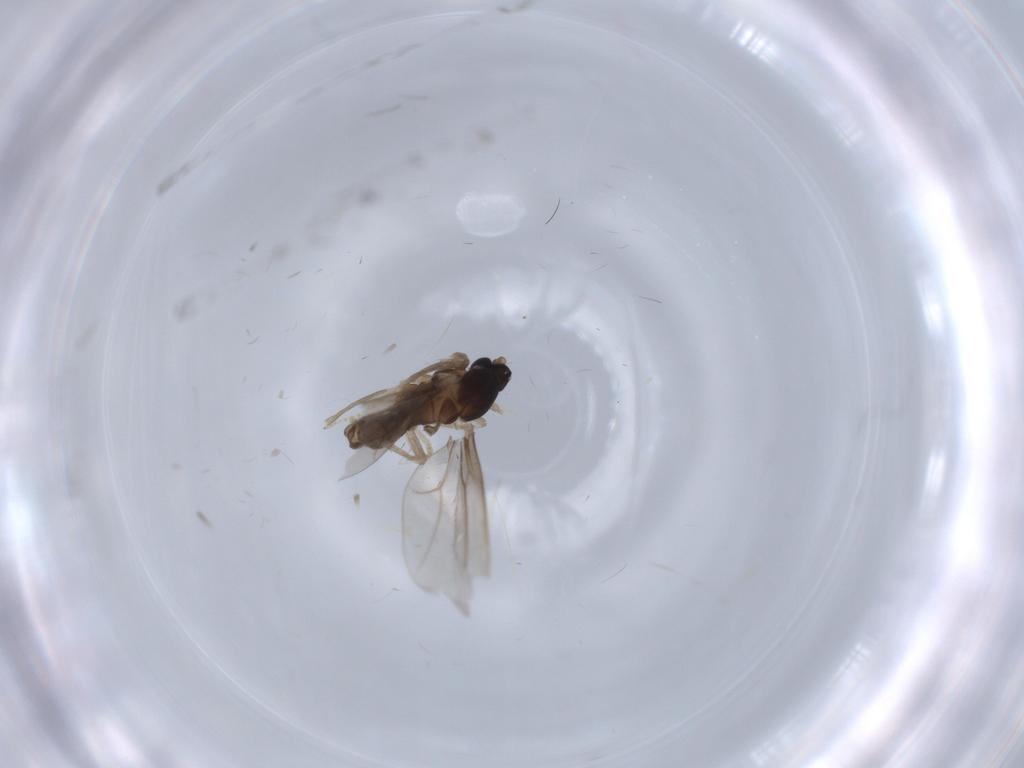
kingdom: Animalia
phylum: Arthropoda
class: Insecta
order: Diptera
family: Cecidomyiidae
